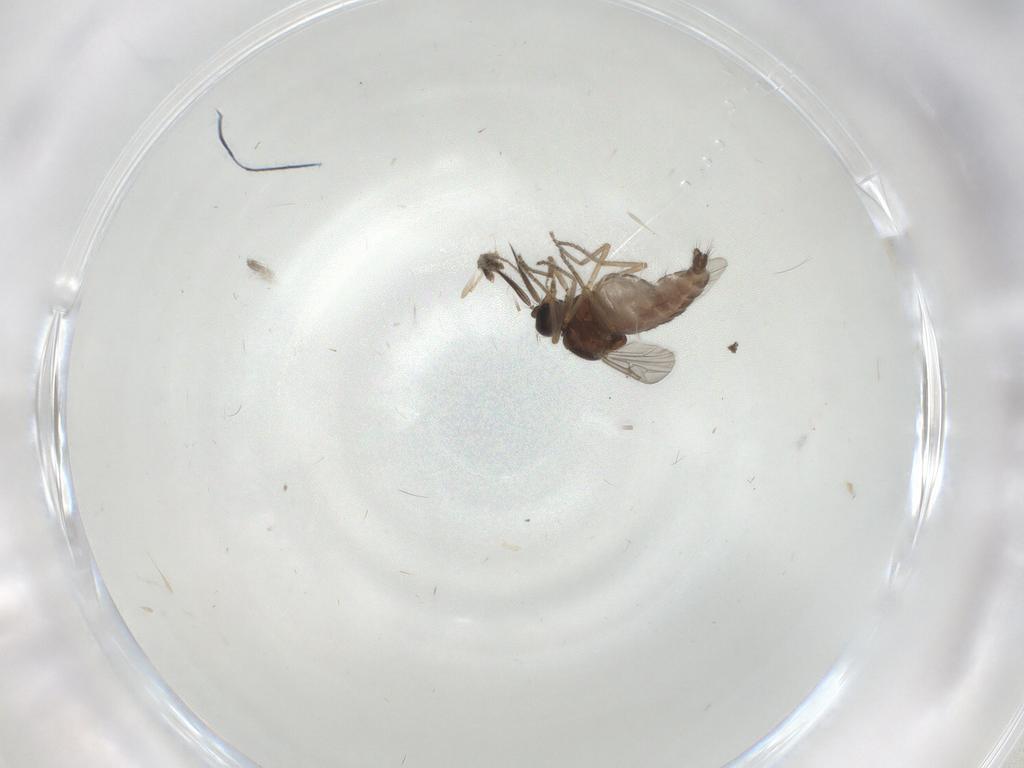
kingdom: Animalia
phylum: Arthropoda
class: Insecta
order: Diptera
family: Ceratopogonidae
